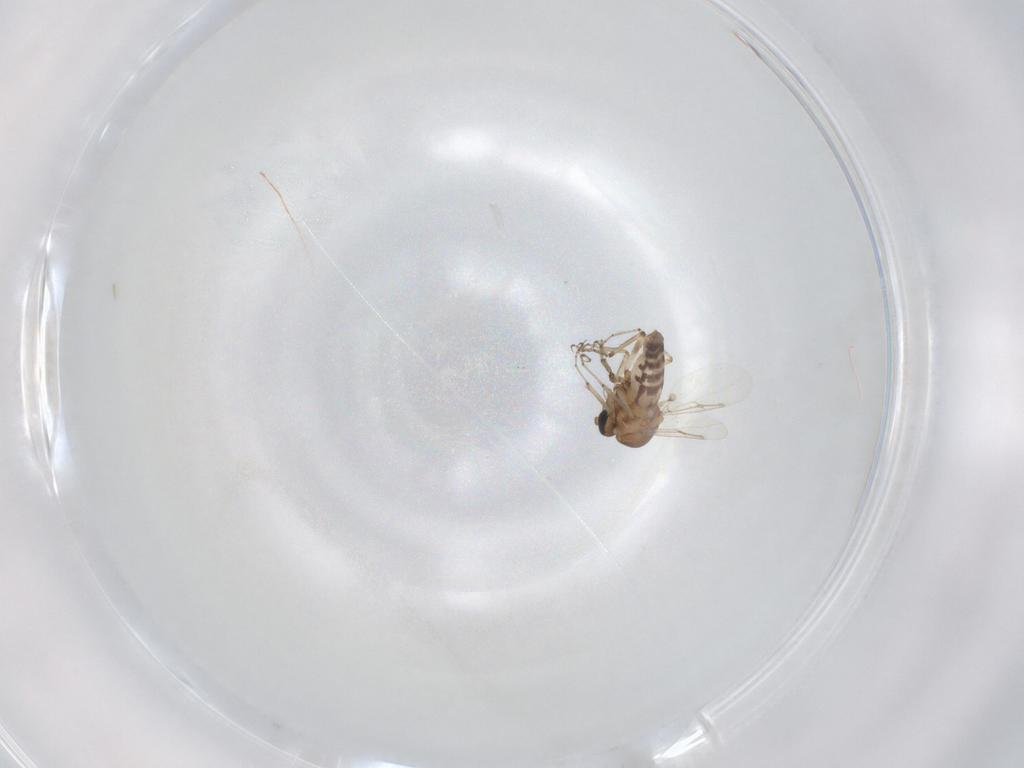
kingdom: Animalia
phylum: Arthropoda
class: Insecta
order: Diptera
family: Ceratopogonidae
